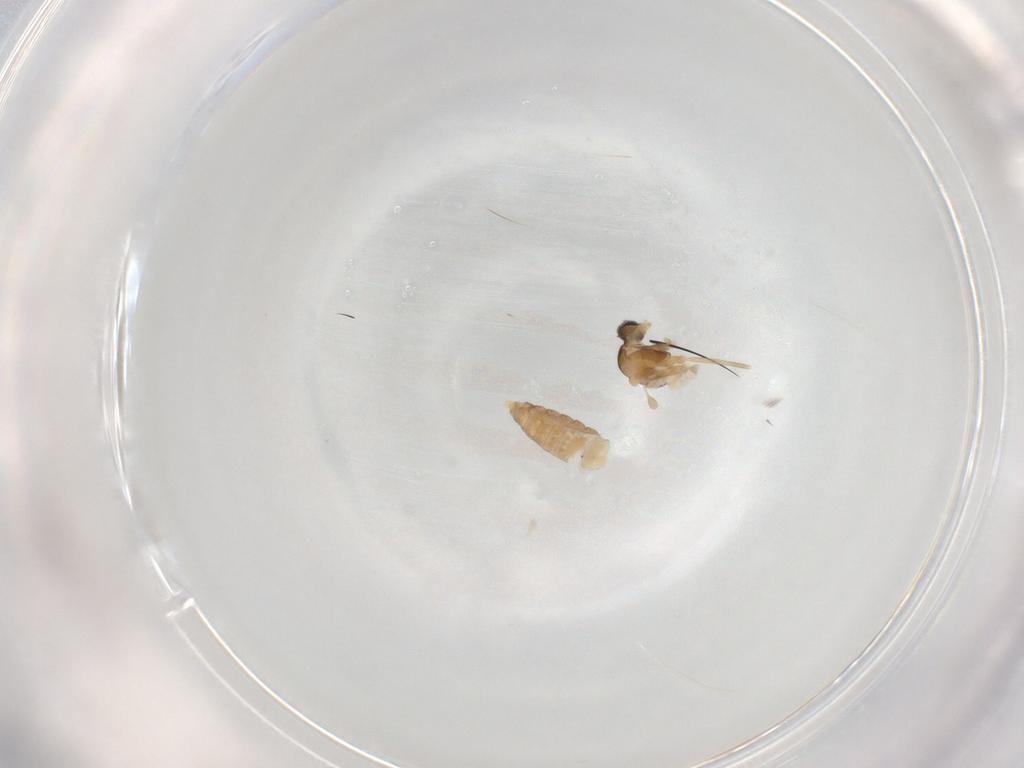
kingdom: Animalia
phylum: Arthropoda
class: Insecta
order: Diptera
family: Cecidomyiidae
